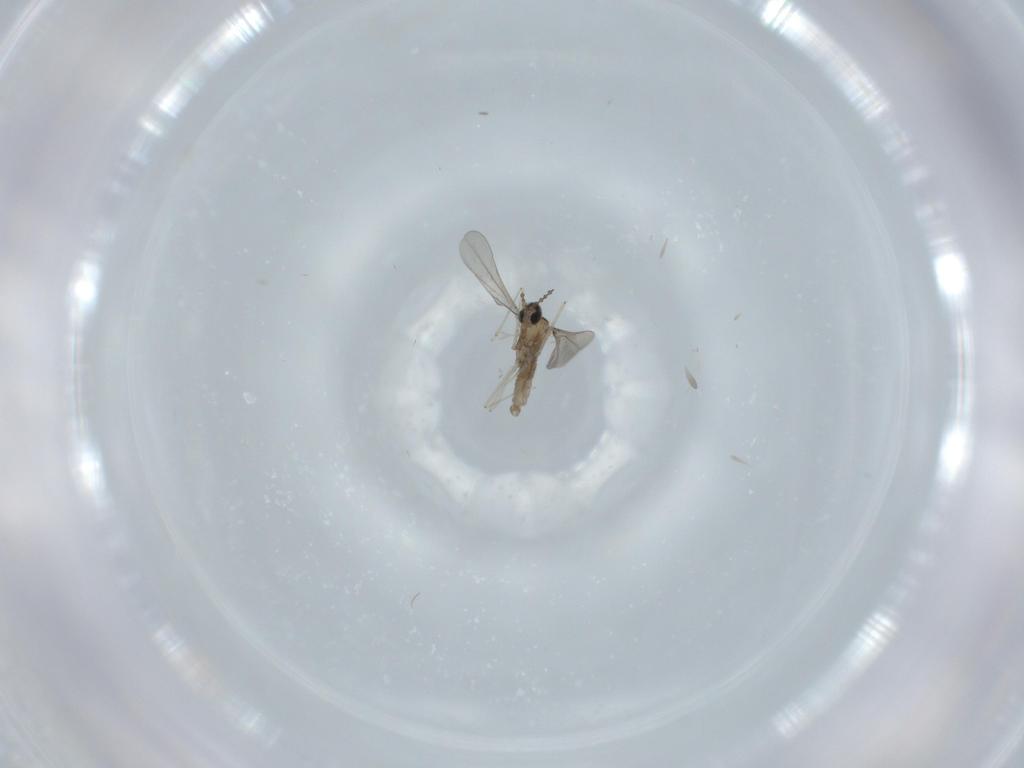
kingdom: Animalia
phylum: Arthropoda
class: Insecta
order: Diptera
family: Cecidomyiidae
